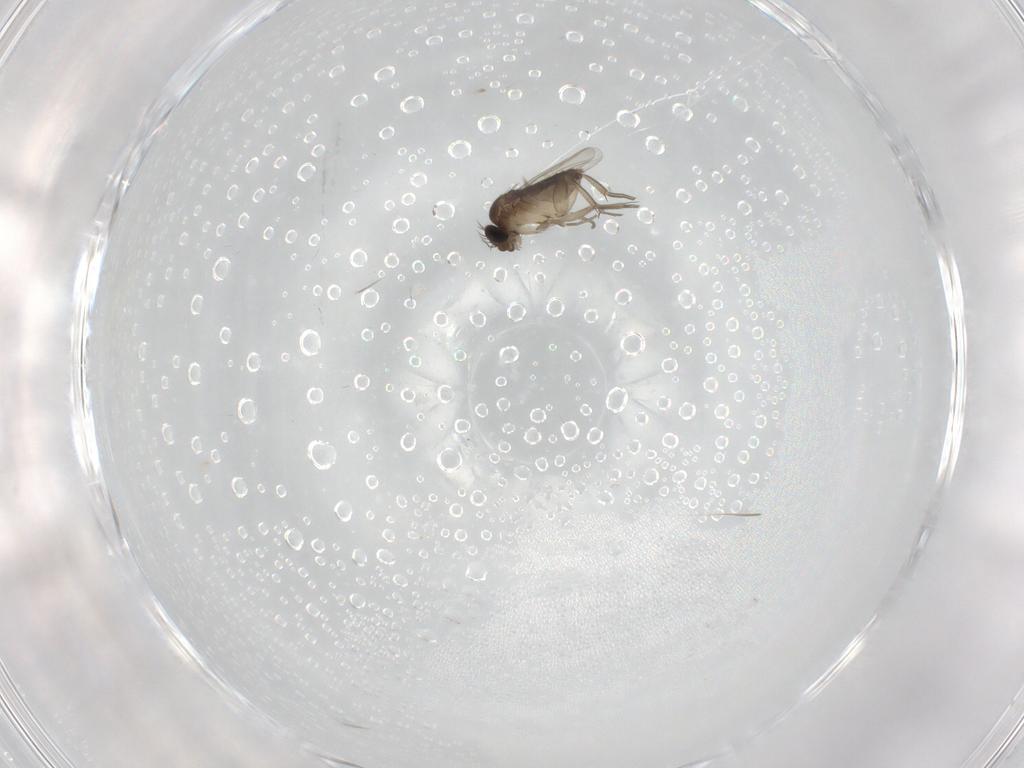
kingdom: Animalia
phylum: Arthropoda
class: Insecta
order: Diptera
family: Phoridae
